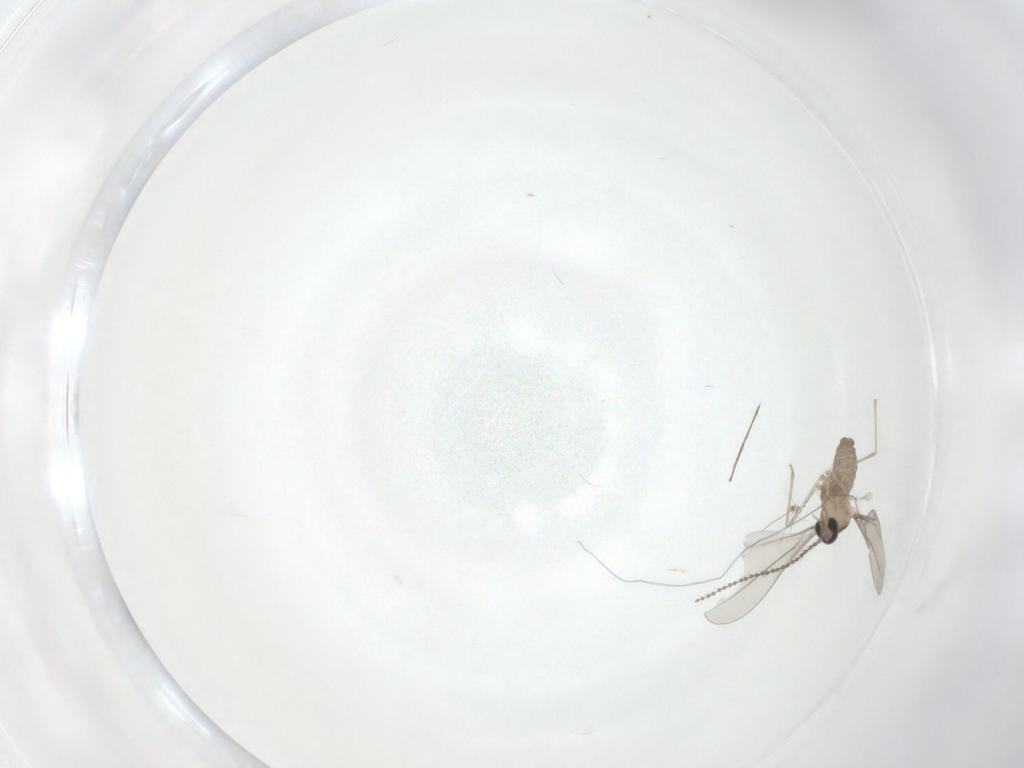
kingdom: Animalia
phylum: Arthropoda
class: Insecta
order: Diptera
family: Cecidomyiidae
